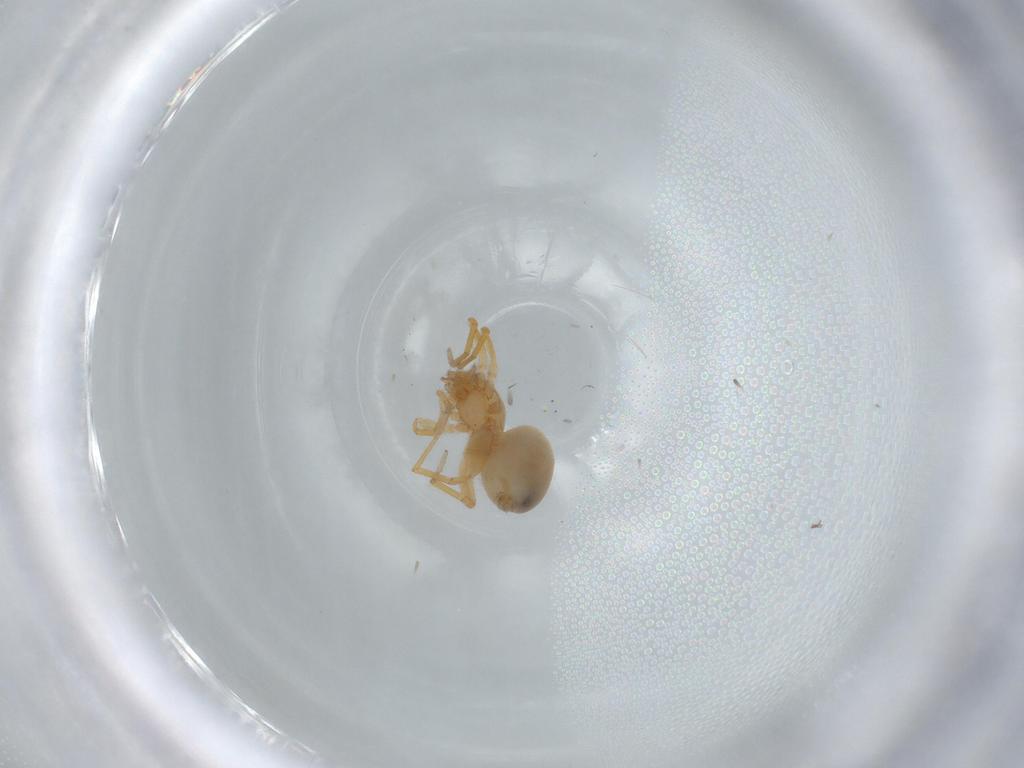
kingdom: Animalia
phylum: Arthropoda
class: Arachnida
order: Araneae
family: Oonopidae
